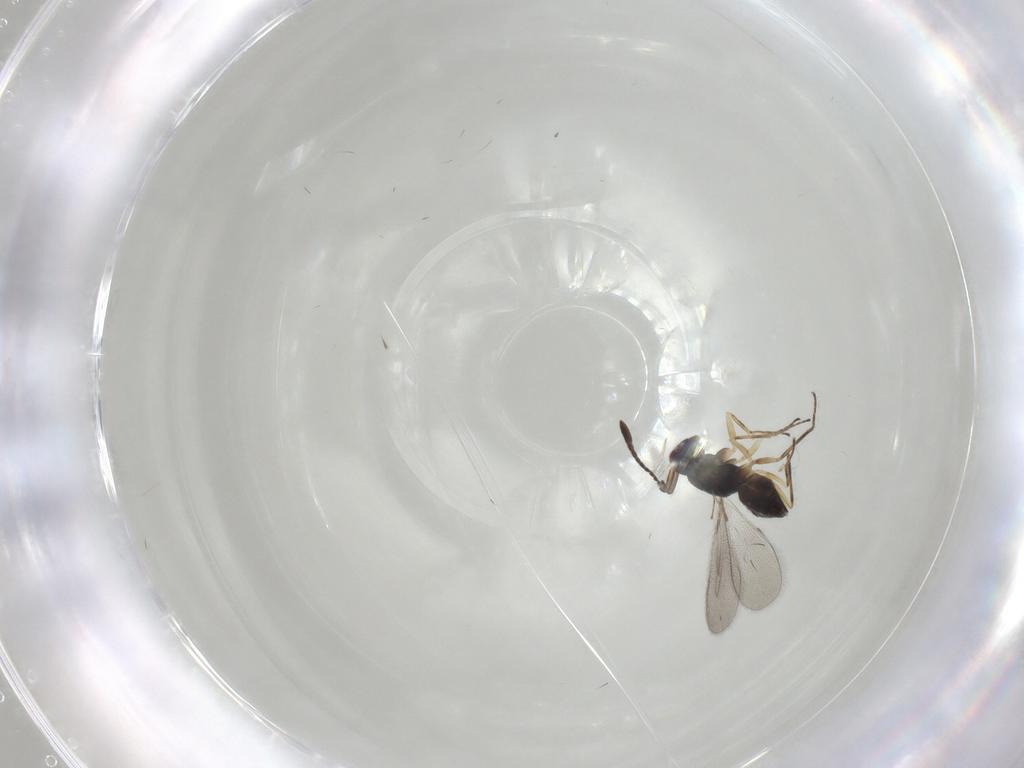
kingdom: Animalia
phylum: Arthropoda
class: Insecta
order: Hymenoptera
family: Mymaridae
